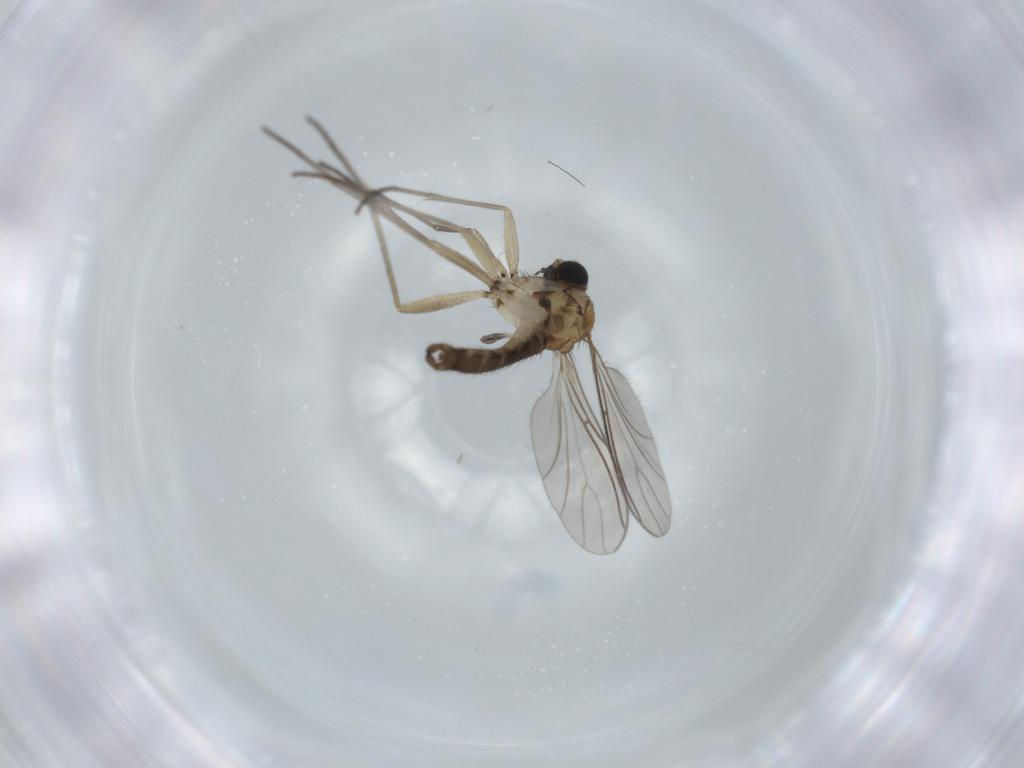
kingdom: Animalia
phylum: Arthropoda
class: Insecta
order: Diptera
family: Sciaridae
